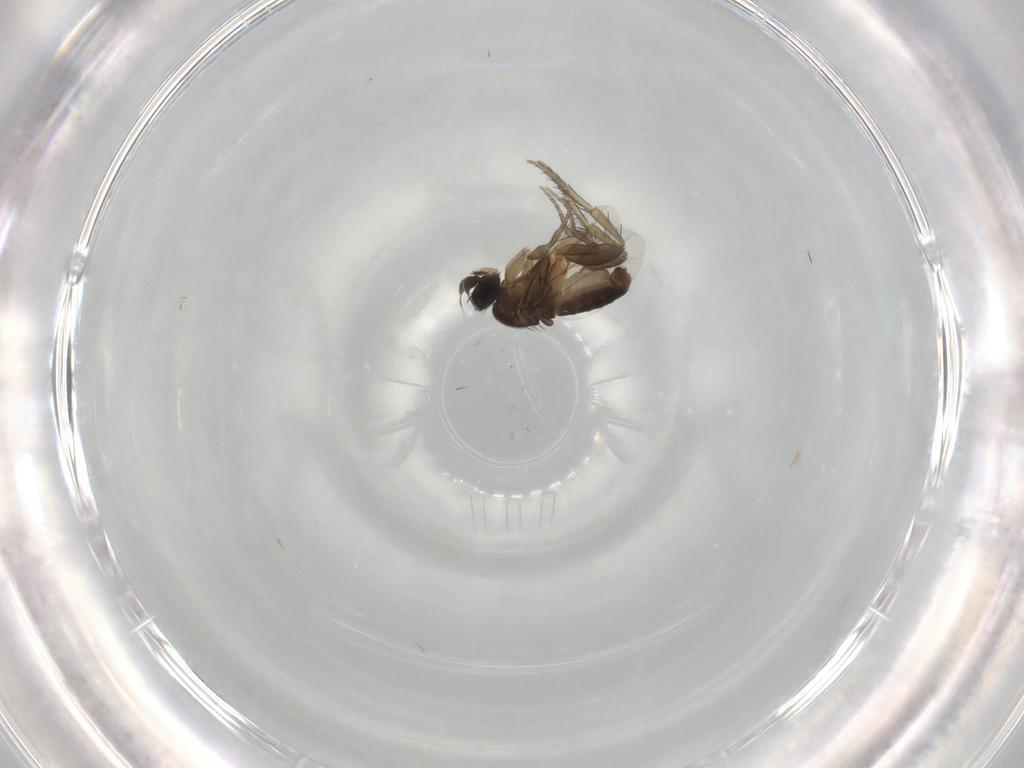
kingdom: Animalia
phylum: Arthropoda
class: Insecta
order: Diptera
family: Phoridae
